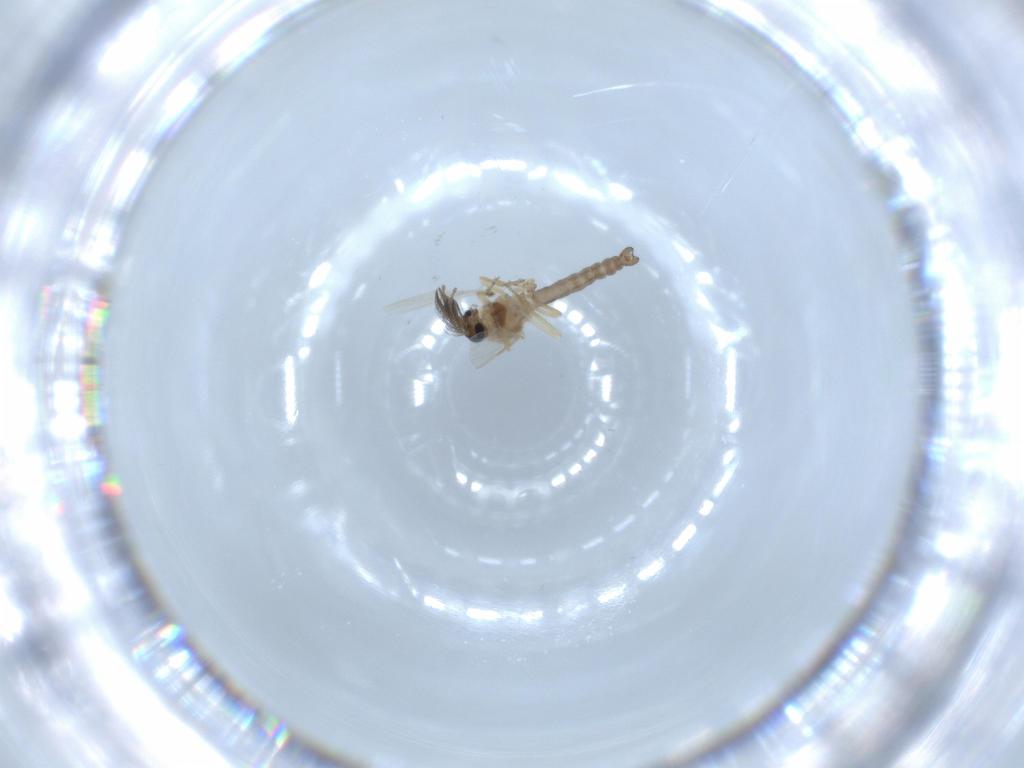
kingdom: Animalia
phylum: Arthropoda
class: Insecta
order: Diptera
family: Ceratopogonidae
